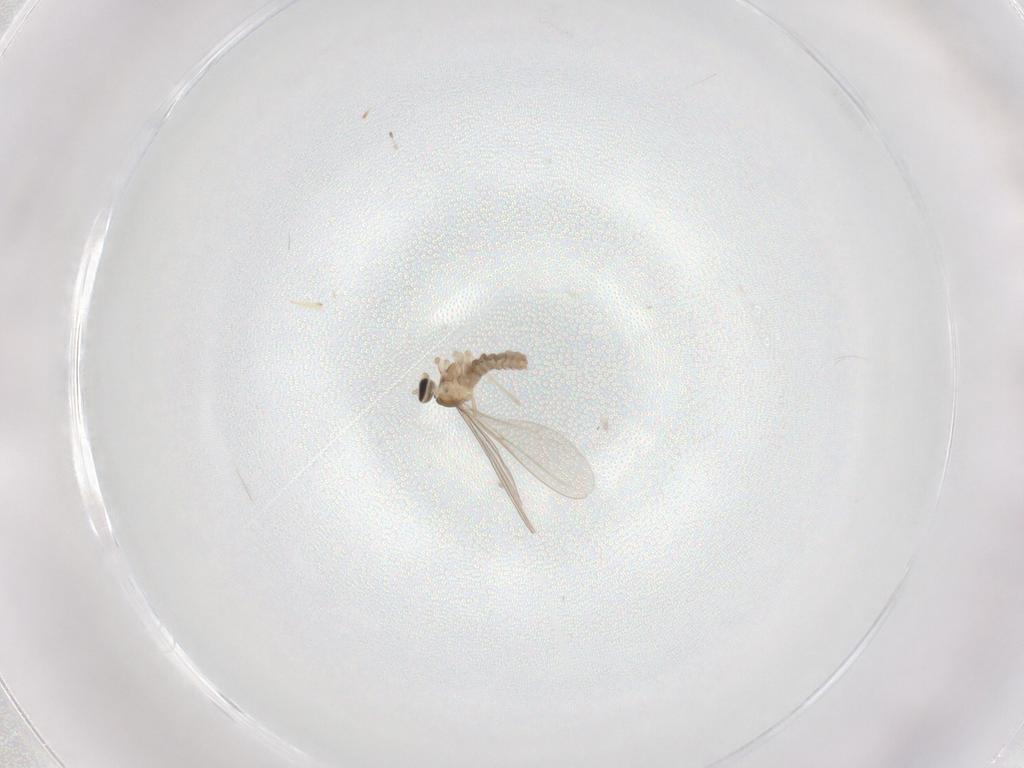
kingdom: Animalia
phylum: Arthropoda
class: Insecta
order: Diptera
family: Cecidomyiidae
